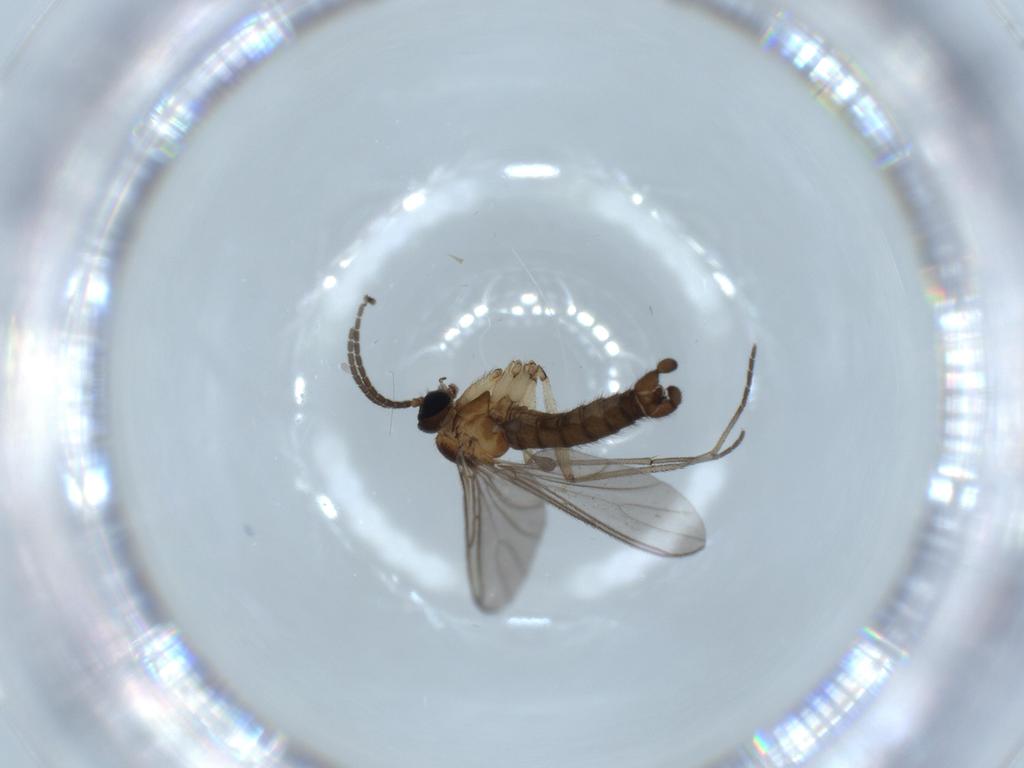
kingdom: Animalia
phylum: Arthropoda
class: Insecta
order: Diptera
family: Sciaridae
